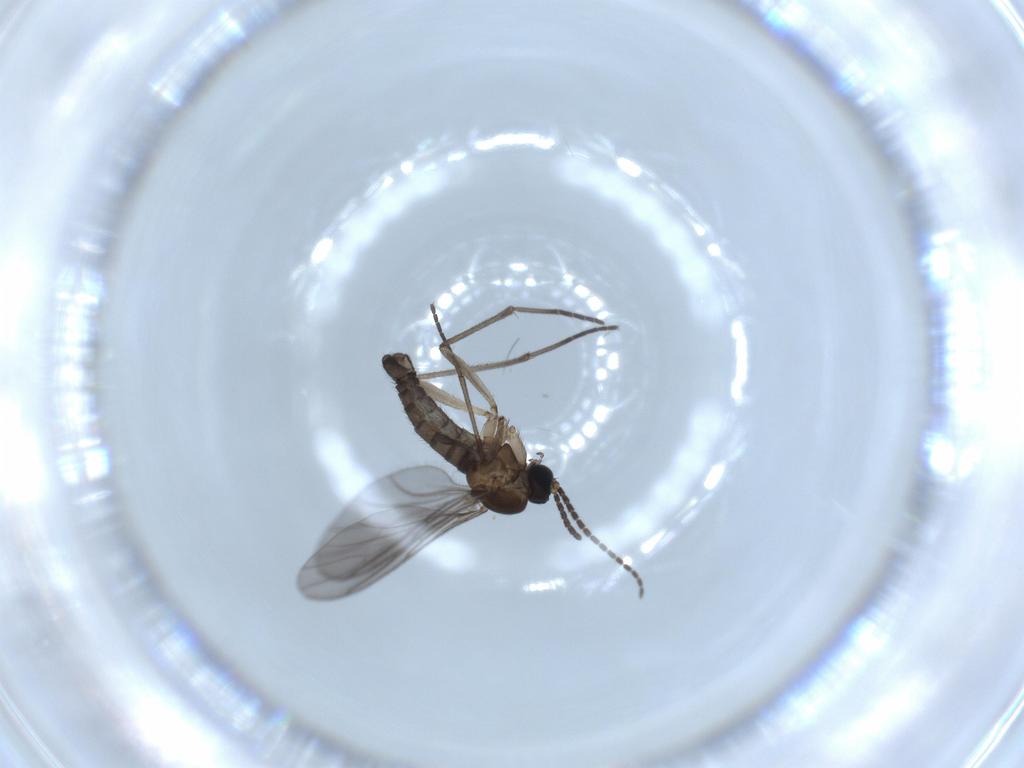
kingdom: Animalia
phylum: Arthropoda
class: Insecta
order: Diptera
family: Sciaridae
